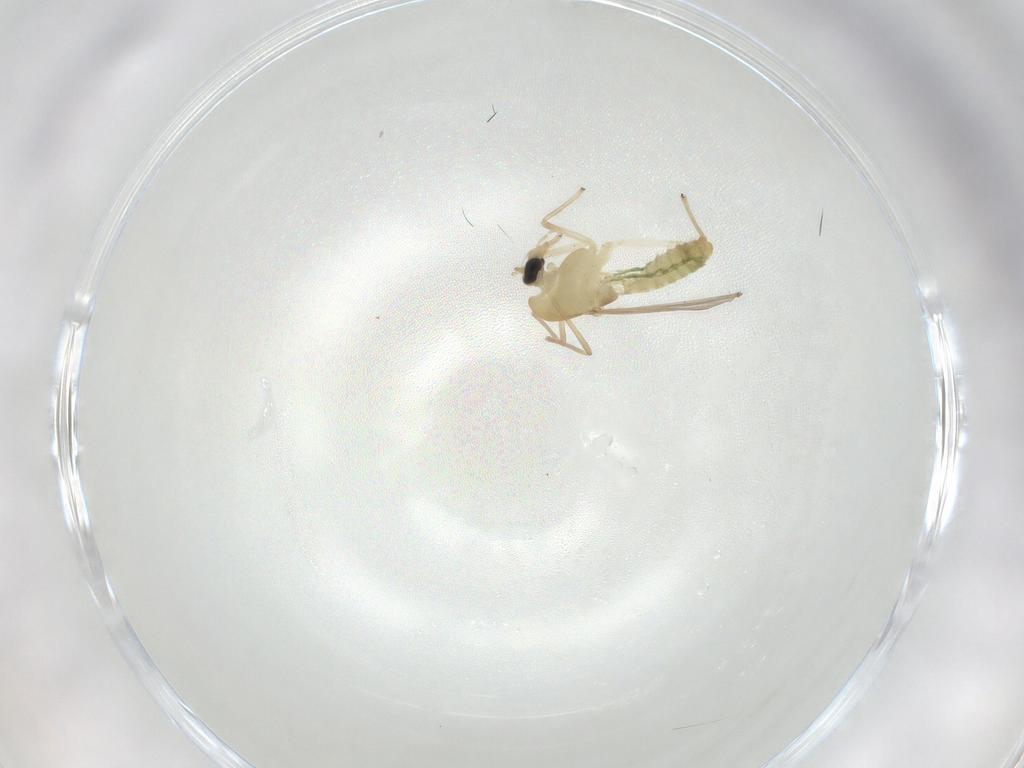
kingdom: Animalia
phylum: Arthropoda
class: Insecta
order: Diptera
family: Chironomidae
